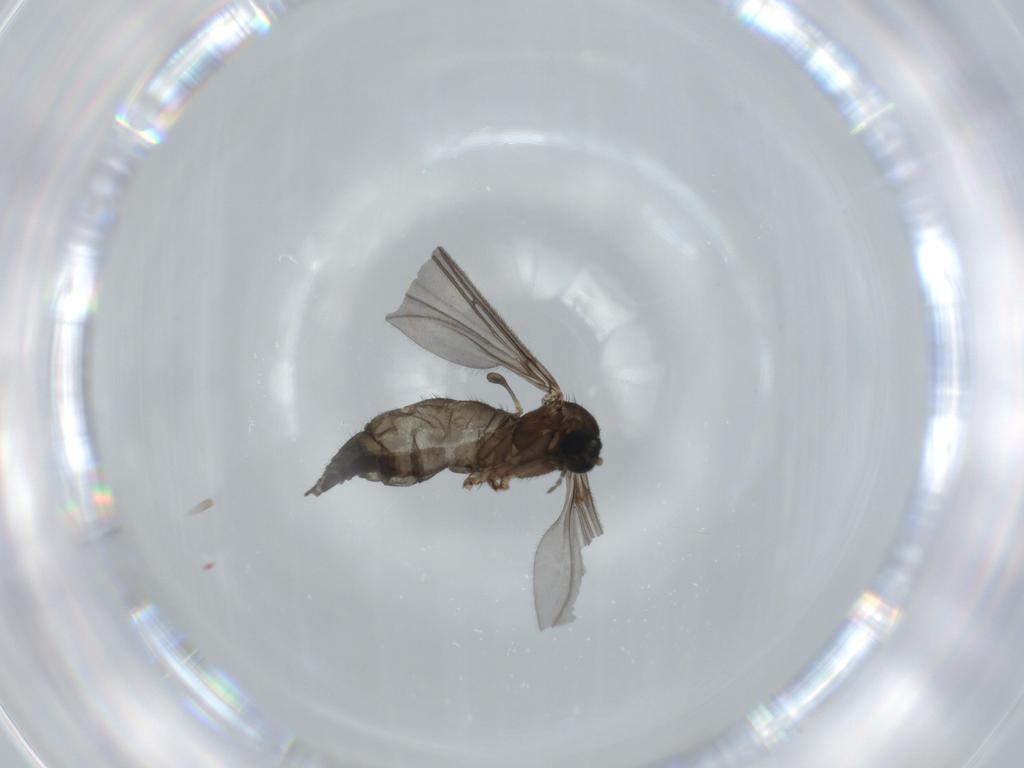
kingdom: Animalia
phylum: Arthropoda
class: Insecta
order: Diptera
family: Sciaridae
